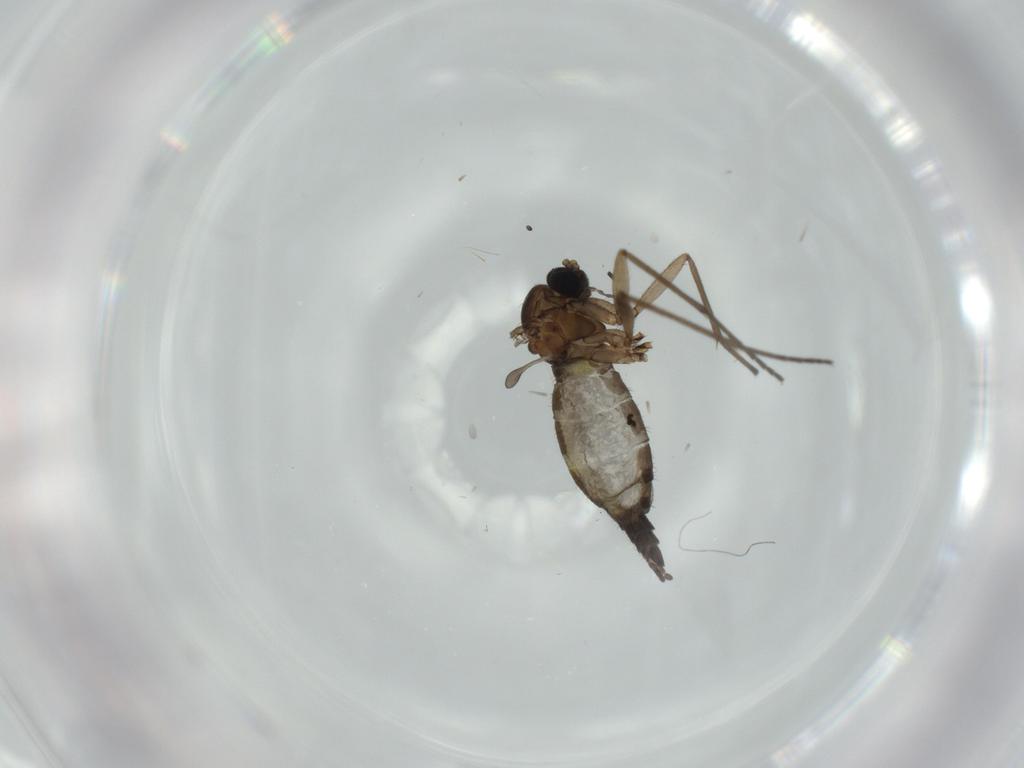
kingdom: Animalia
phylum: Arthropoda
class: Insecta
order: Diptera
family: Sciaridae
